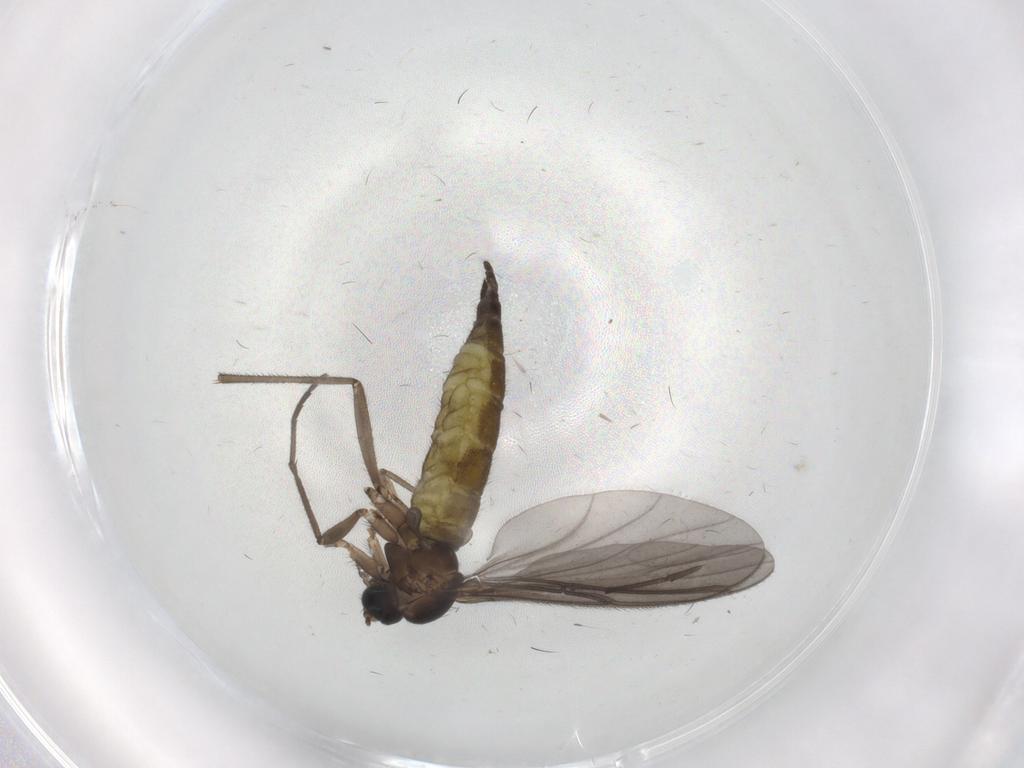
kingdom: Animalia
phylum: Arthropoda
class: Insecta
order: Diptera
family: Sciaridae
